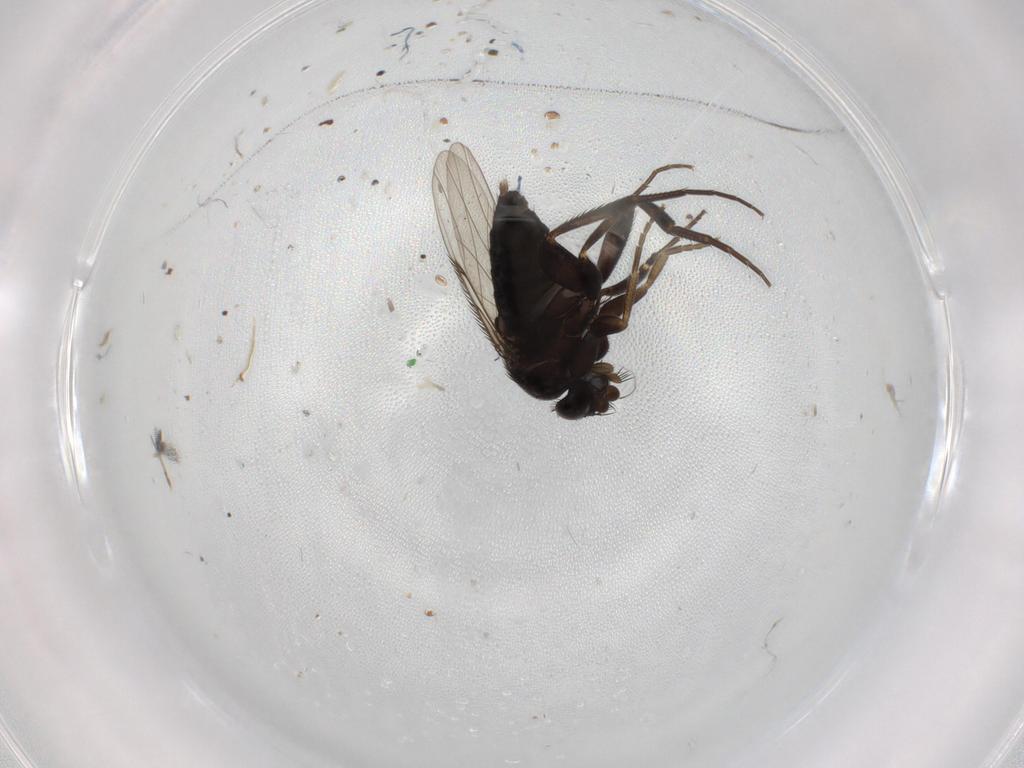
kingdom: Animalia
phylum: Arthropoda
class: Insecta
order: Diptera
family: Phoridae
